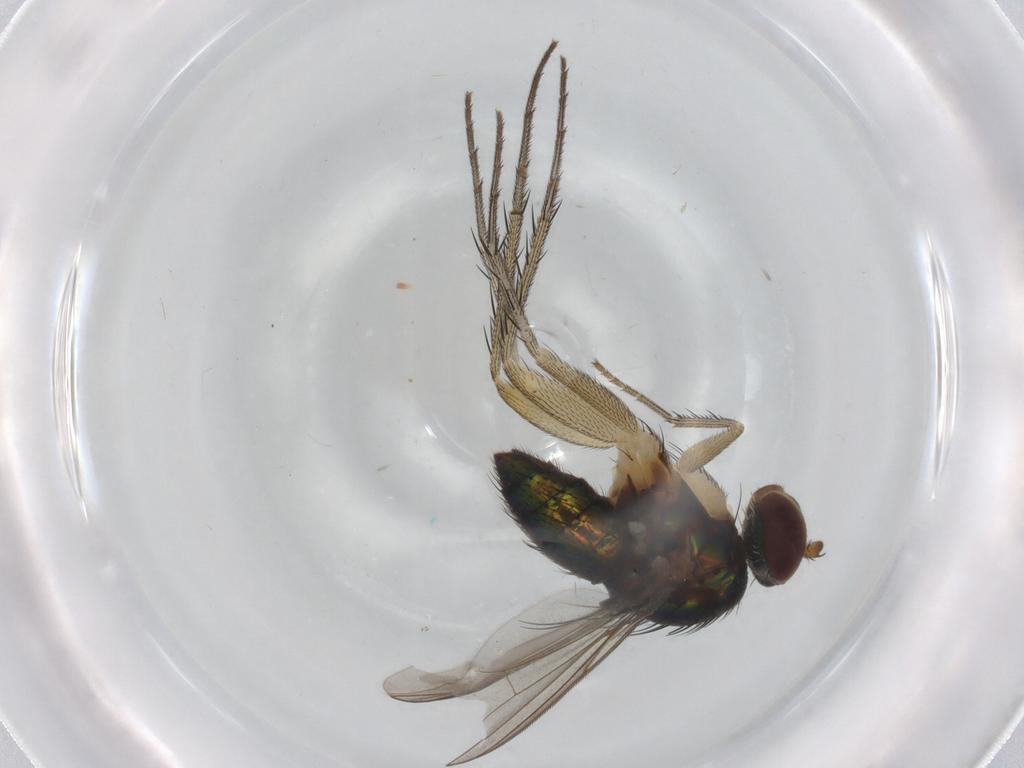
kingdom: Animalia
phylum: Arthropoda
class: Insecta
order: Diptera
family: Dolichopodidae
